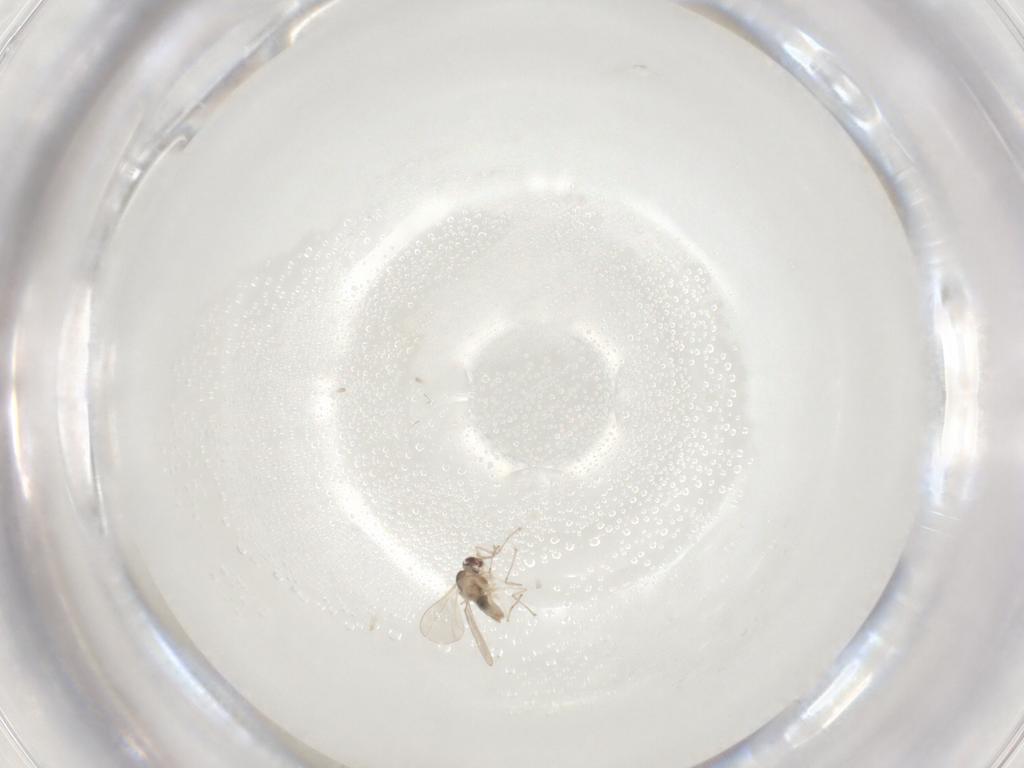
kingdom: Animalia
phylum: Arthropoda
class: Insecta
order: Diptera
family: Cecidomyiidae
